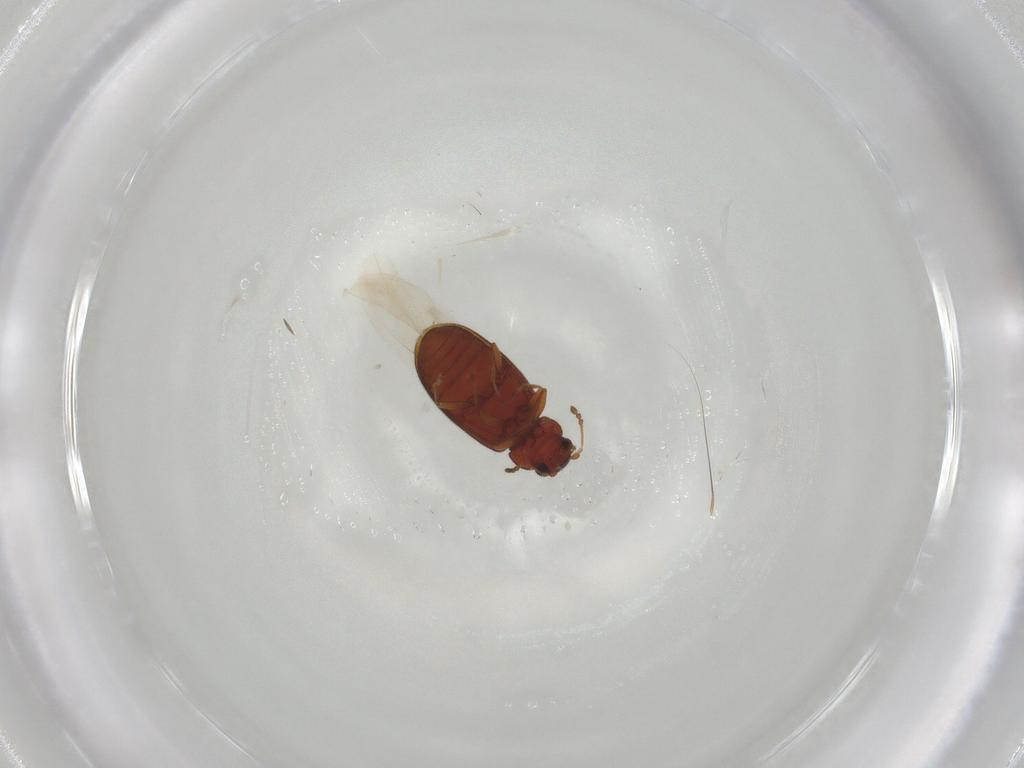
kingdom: Animalia
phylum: Arthropoda
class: Insecta
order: Coleoptera
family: Latridiidae
